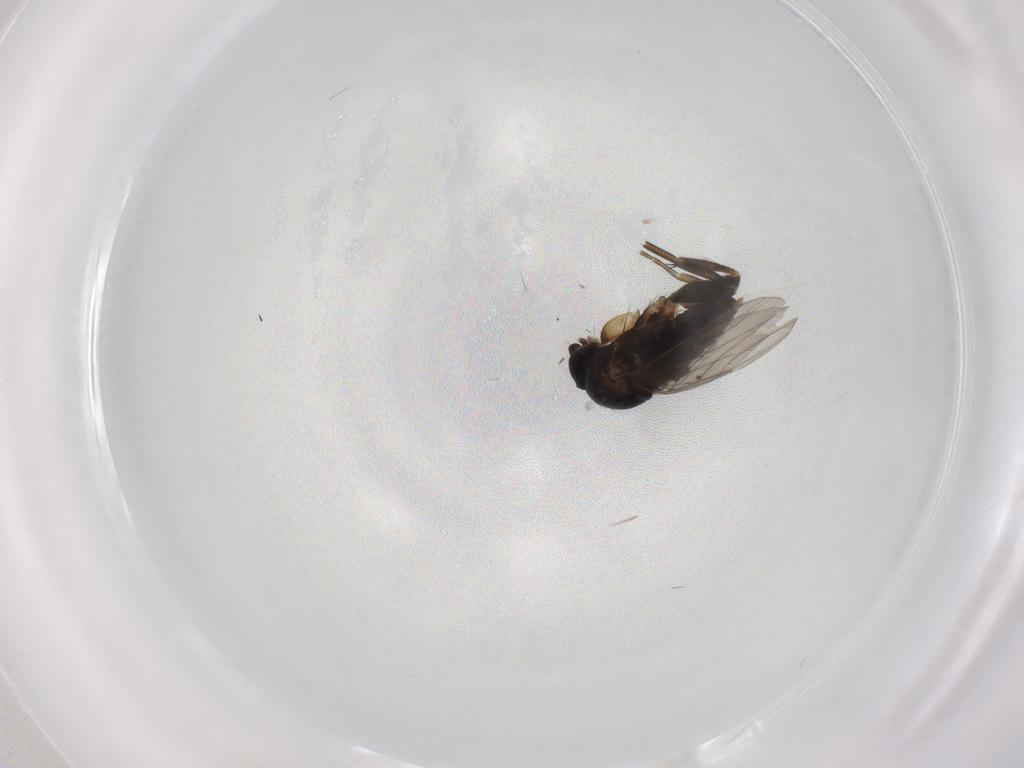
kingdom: Animalia
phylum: Arthropoda
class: Insecta
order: Diptera
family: Phoridae
